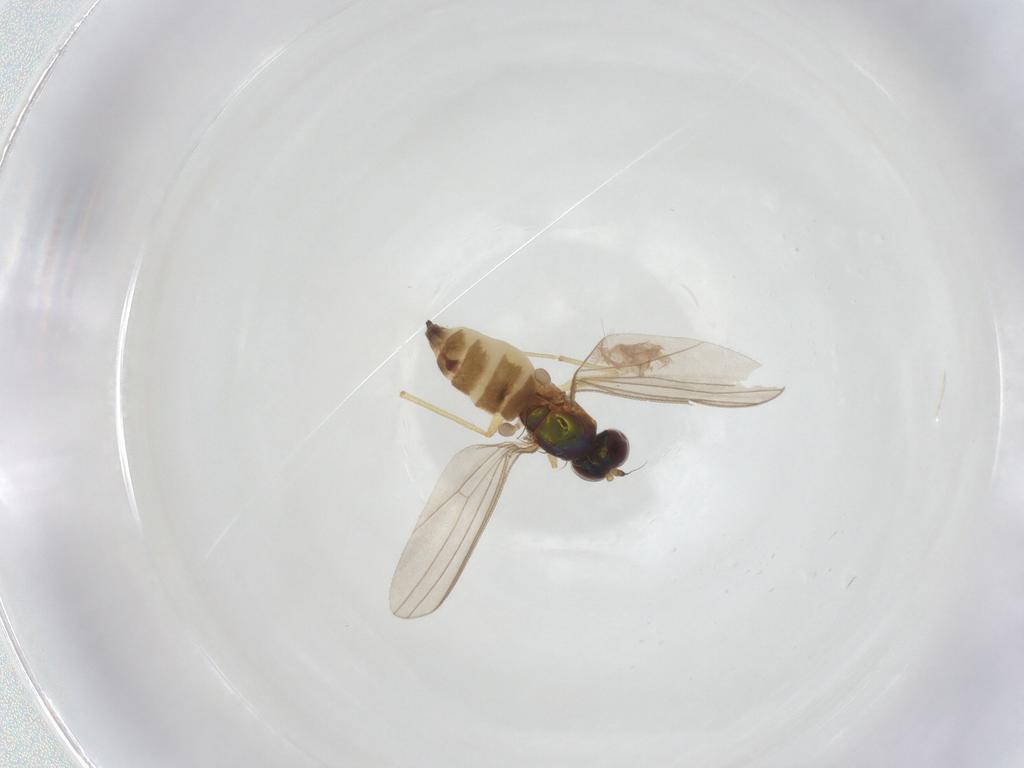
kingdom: Animalia
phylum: Arthropoda
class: Insecta
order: Diptera
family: Dolichopodidae
